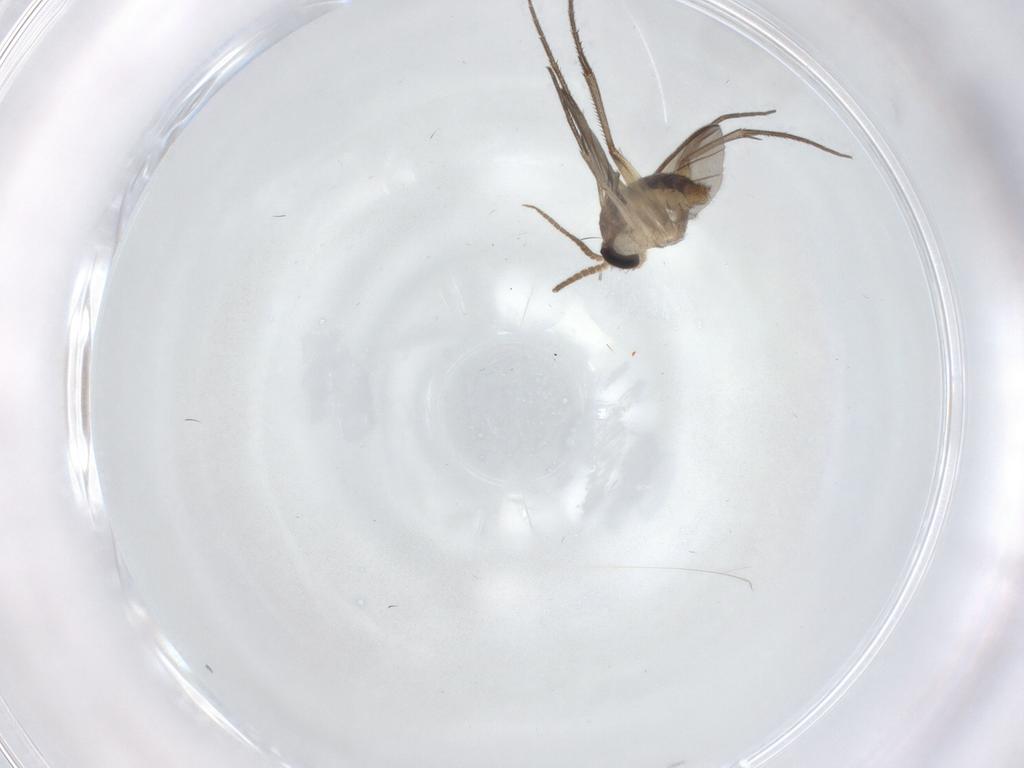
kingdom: Animalia
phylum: Arthropoda
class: Insecta
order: Diptera
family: Mycetophilidae
